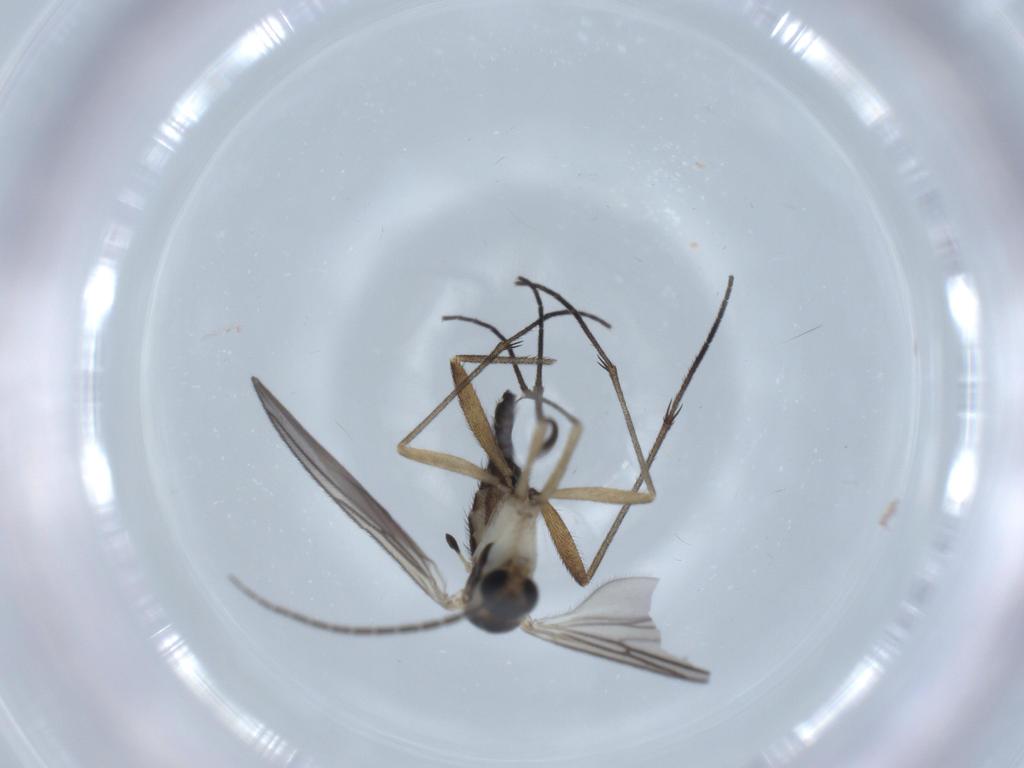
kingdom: Animalia
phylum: Arthropoda
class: Insecta
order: Diptera
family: Sciaridae
